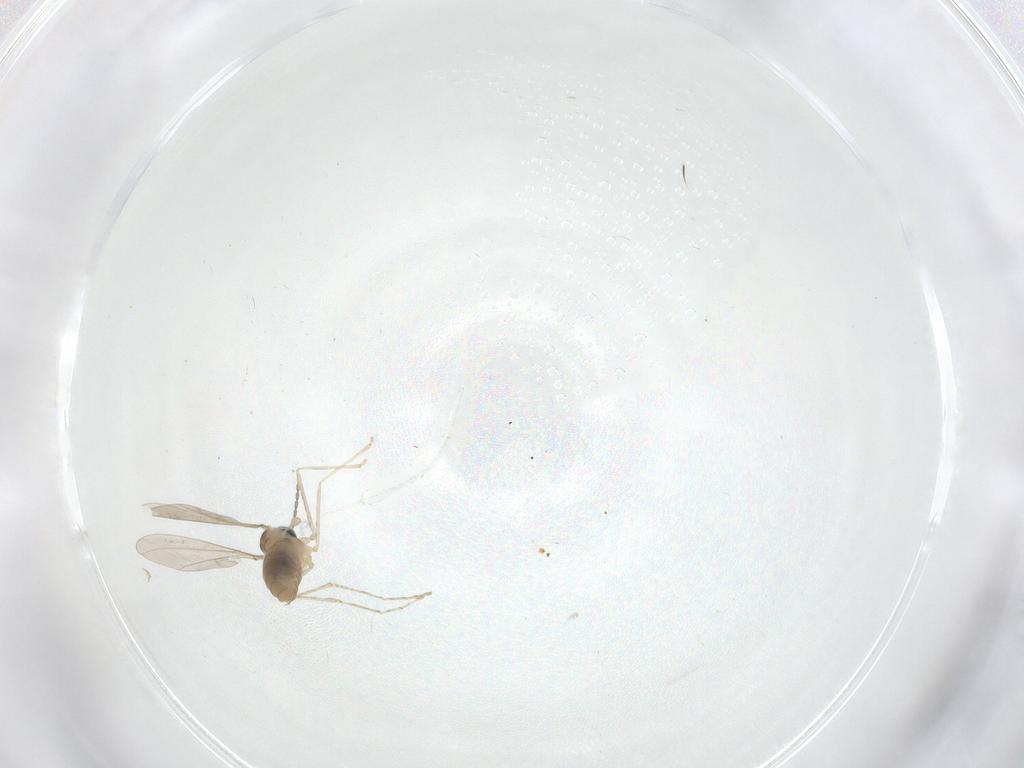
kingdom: Animalia
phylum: Arthropoda
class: Insecta
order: Diptera
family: Cecidomyiidae
